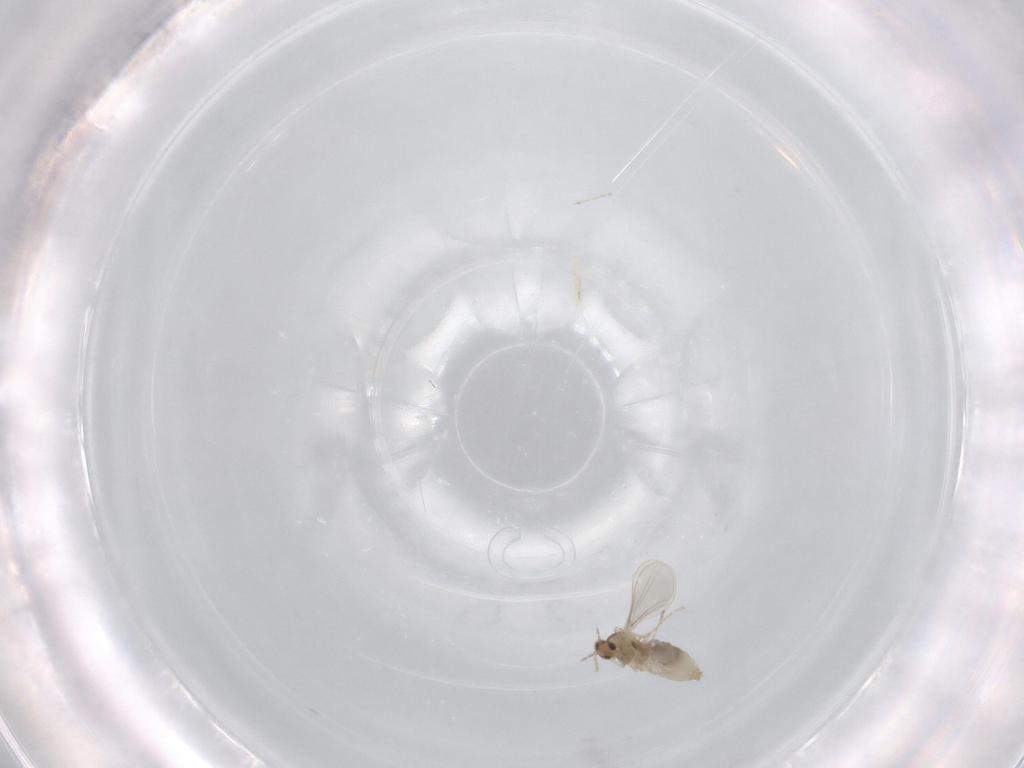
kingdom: Animalia
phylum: Arthropoda
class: Insecta
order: Diptera
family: Cecidomyiidae
